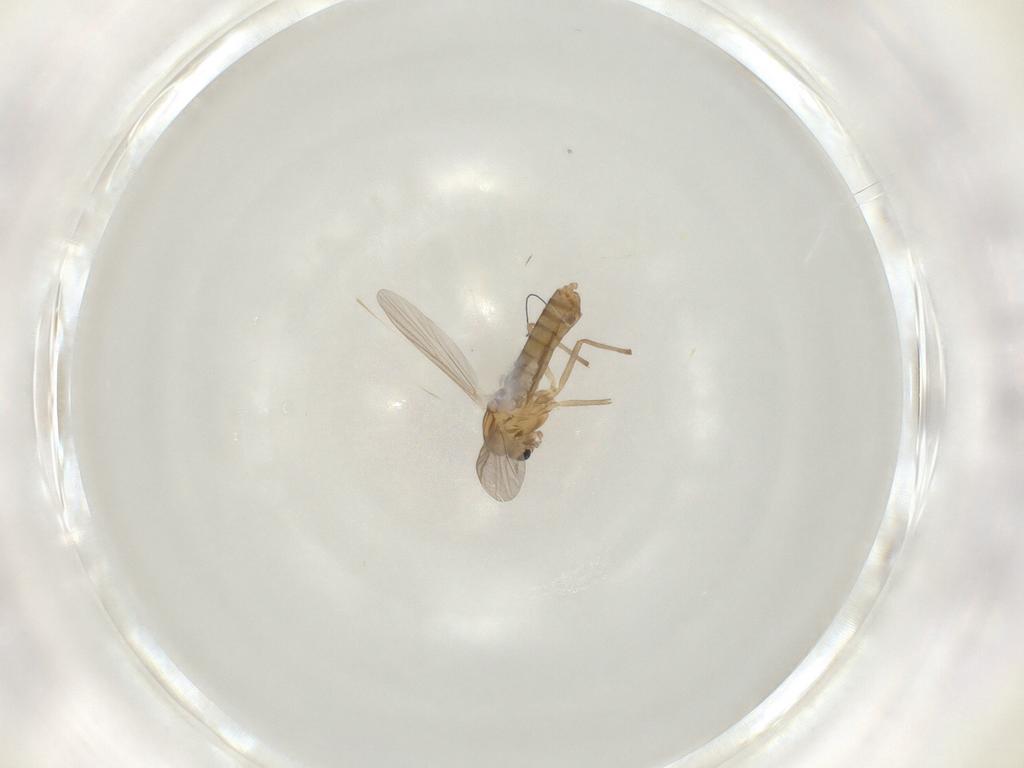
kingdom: Animalia
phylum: Arthropoda
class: Insecta
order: Diptera
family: Chironomidae
